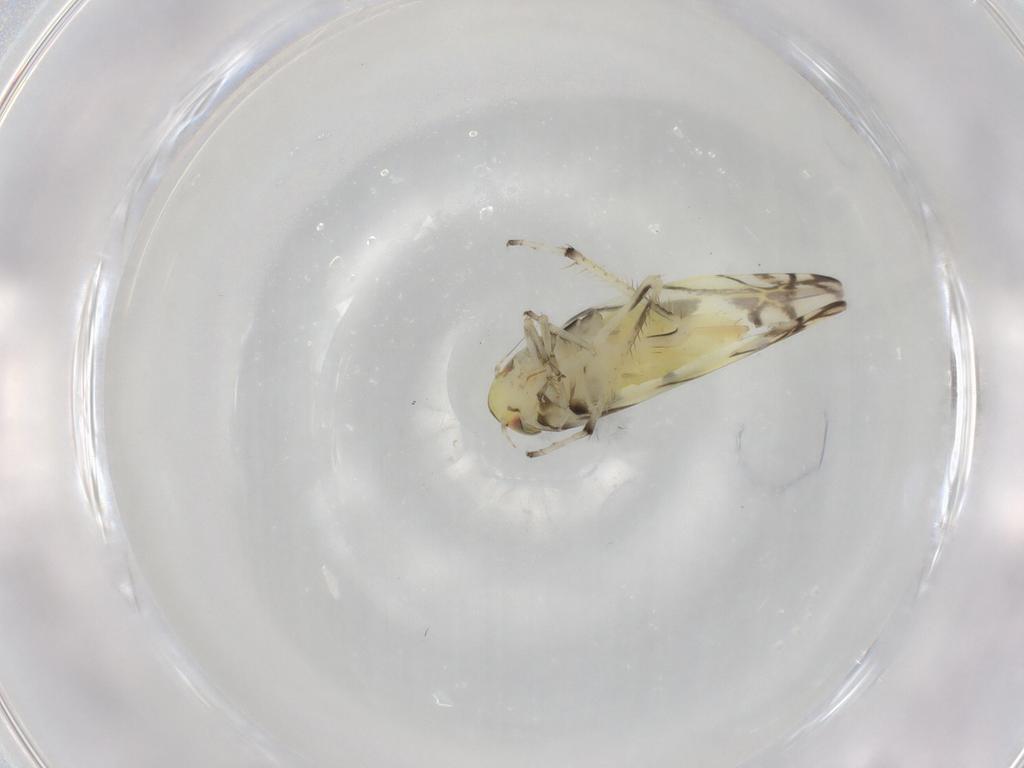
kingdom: Animalia
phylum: Arthropoda
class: Insecta
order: Hemiptera
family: Cicadellidae
